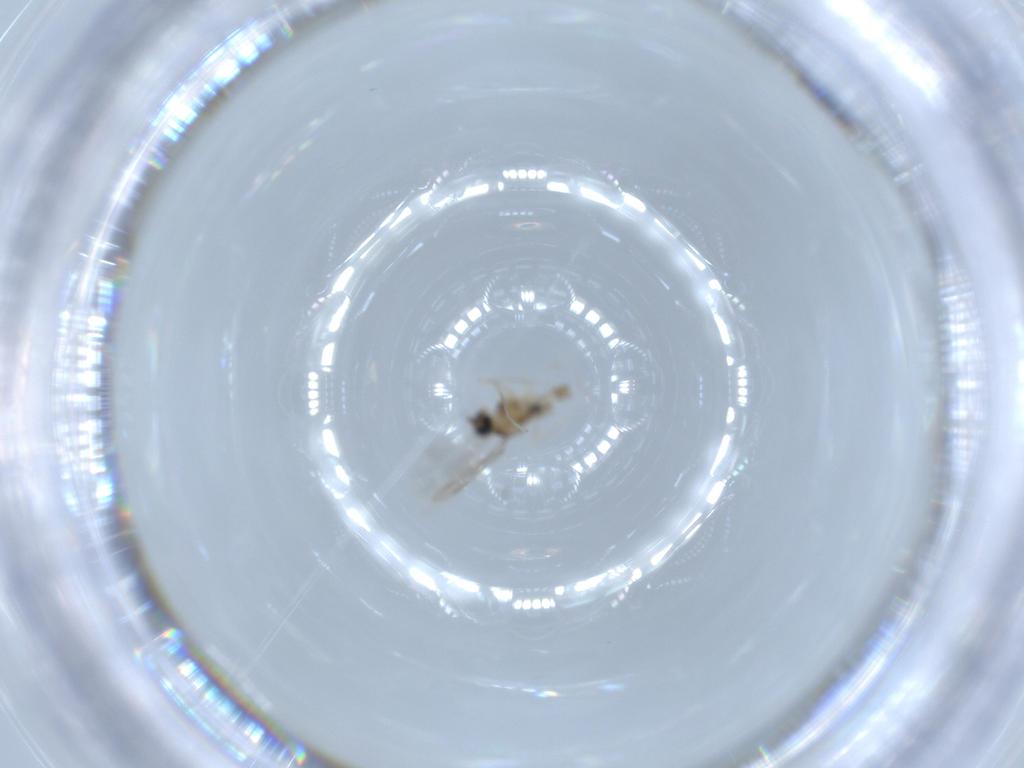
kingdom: Animalia
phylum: Arthropoda
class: Insecta
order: Diptera
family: Cecidomyiidae
